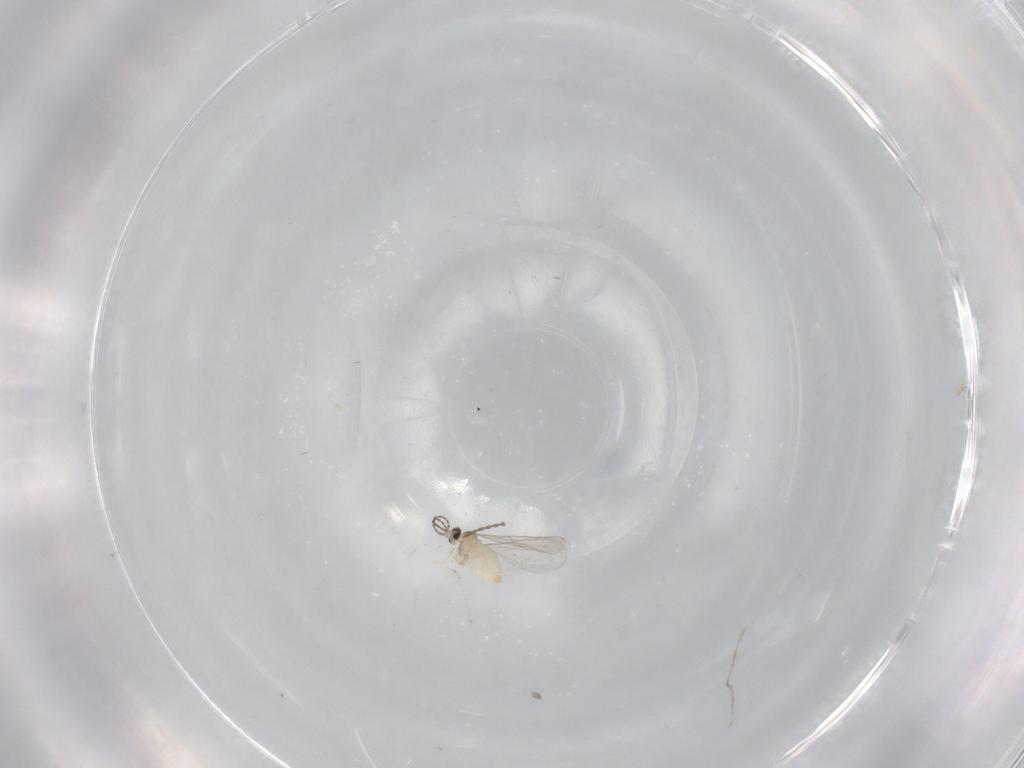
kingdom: Animalia
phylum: Arthropoda
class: Insecta
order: Diptera
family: Cecidomyiidae
